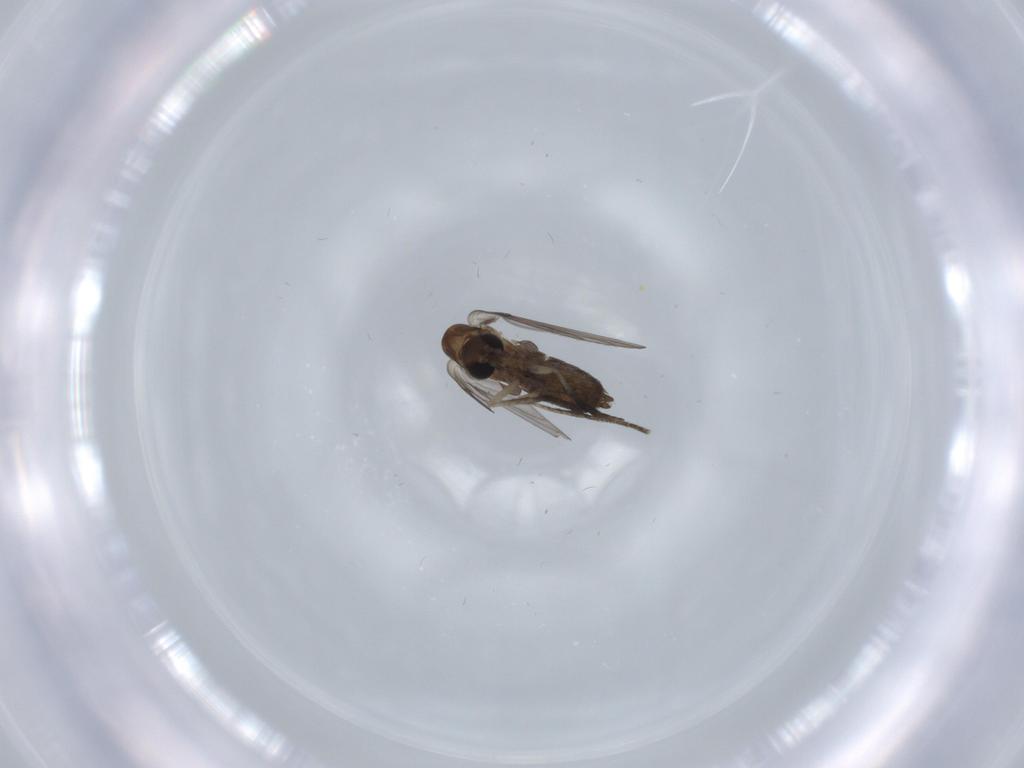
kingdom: Animalia
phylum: Arthropoda
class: Insecta
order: Diptera
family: Psychodidae
